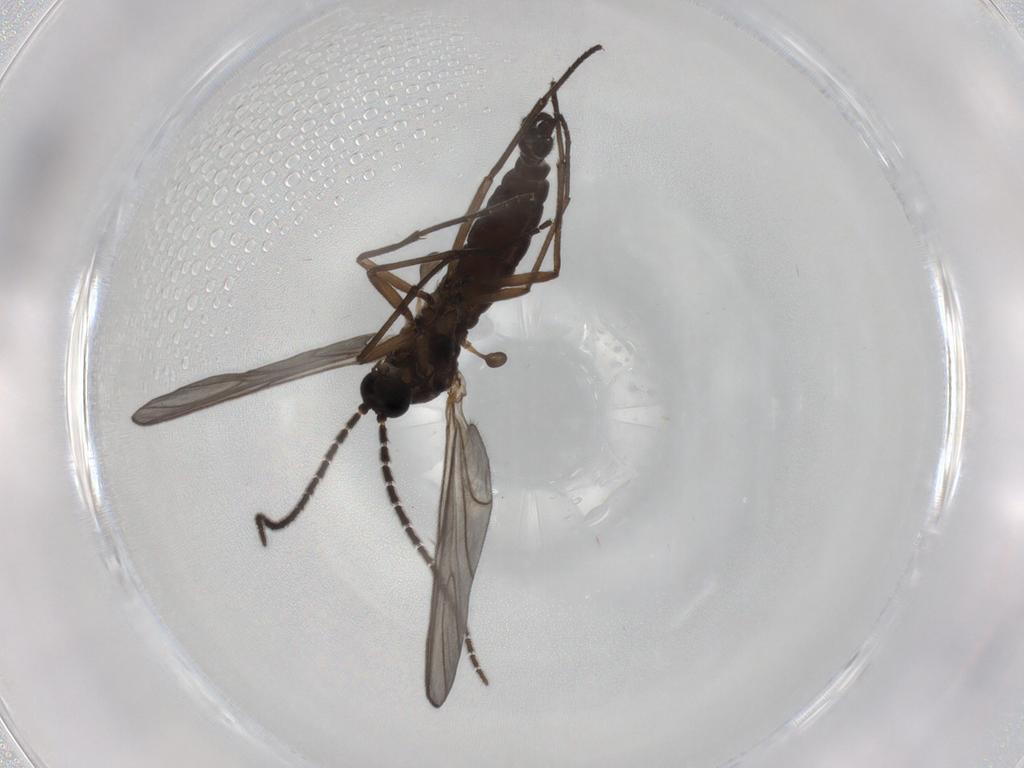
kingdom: Animalia
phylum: Arthropoda
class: Insecta
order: Diptera
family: Sciaridae
